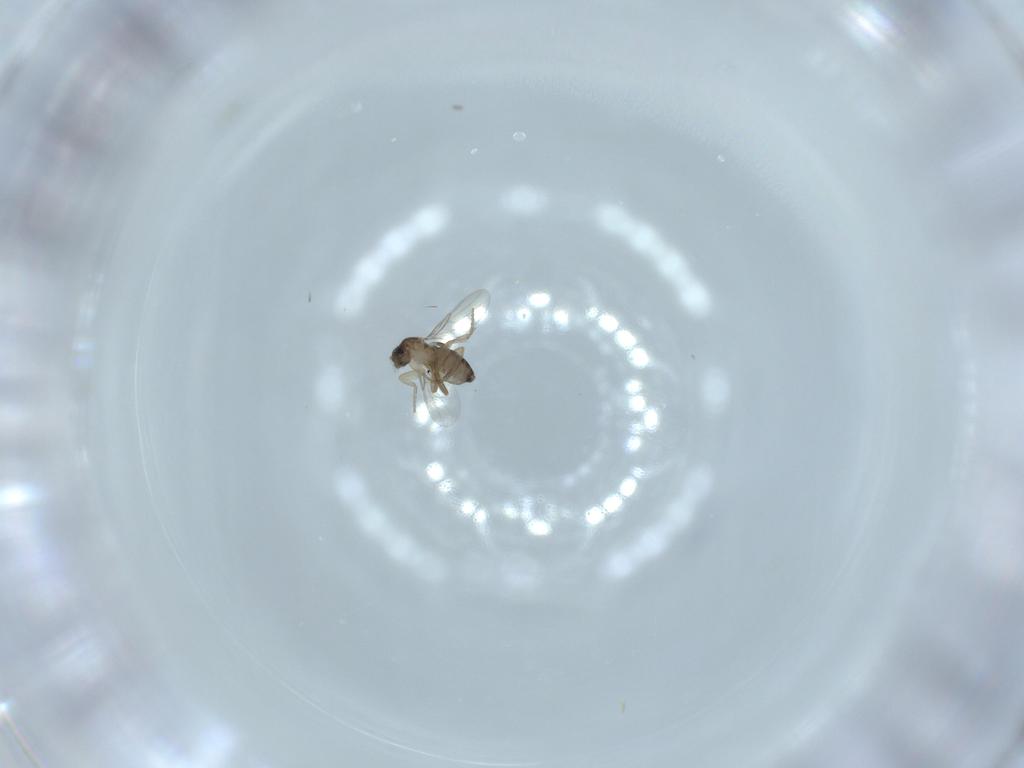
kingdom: Animalia
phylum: Arthropoda
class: Insecta
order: Diptera
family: Phoridae
